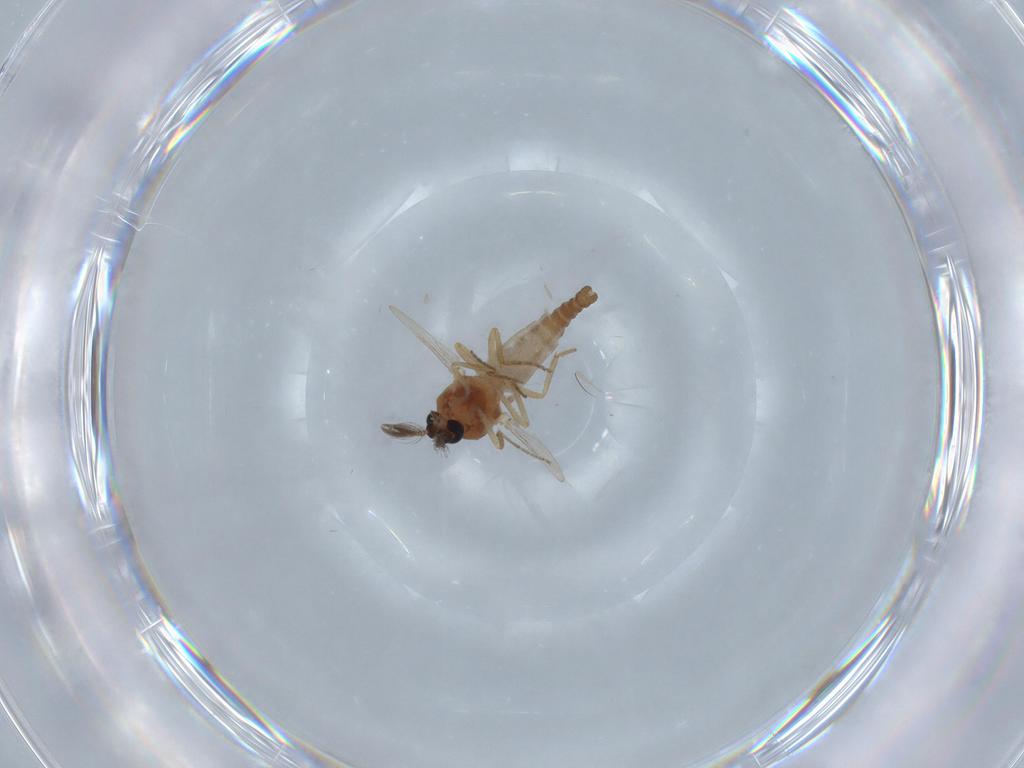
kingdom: Animalia
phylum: Arthropoda
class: Insecta
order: Diptera
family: Ceratopogonidae
